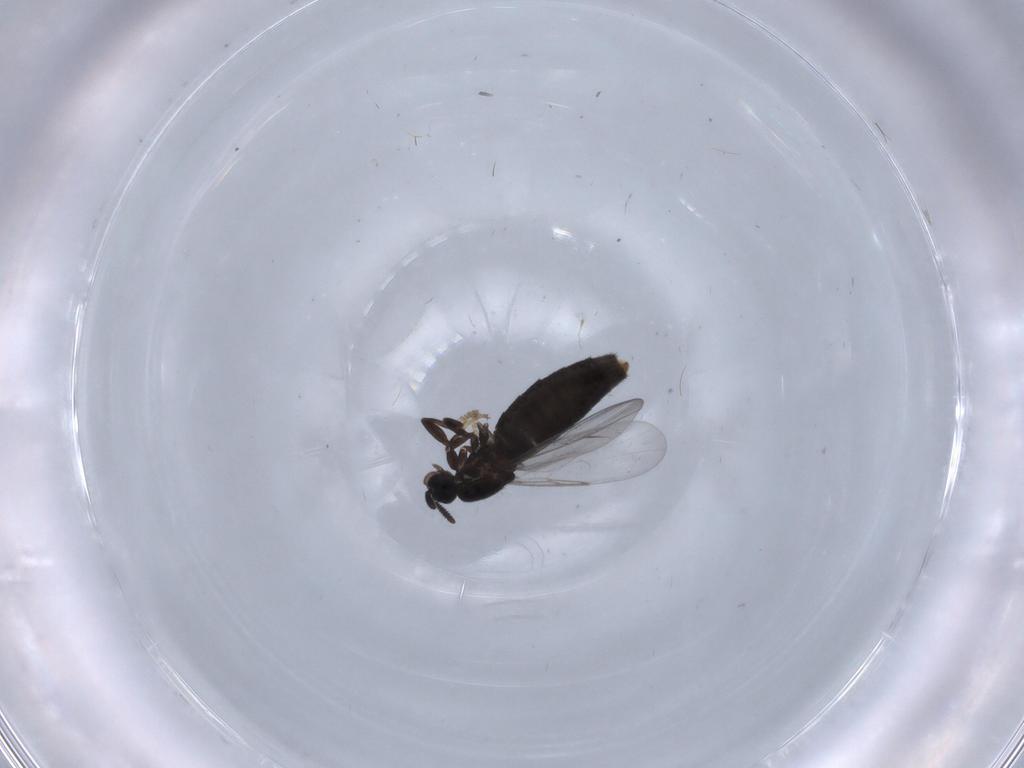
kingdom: Animalia
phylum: Arthropoda
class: Insecta
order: Diptera
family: Scatopsidae
